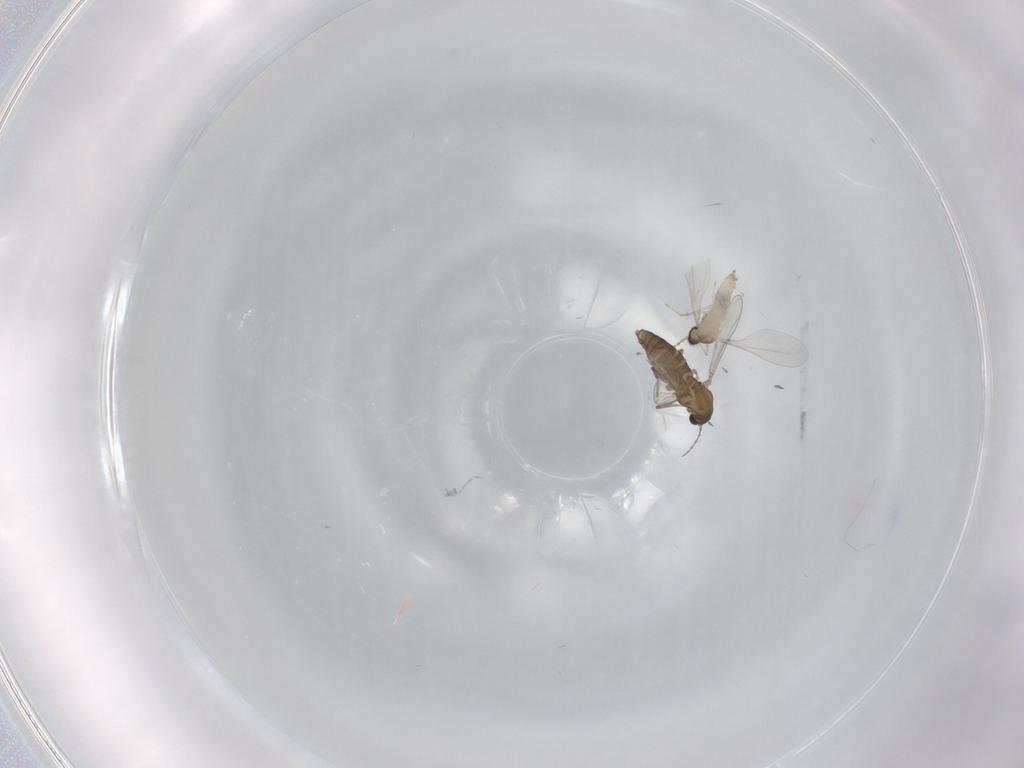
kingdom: Animalia
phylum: Arthropoda
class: Insecta
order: Diptera
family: Chironomidae
